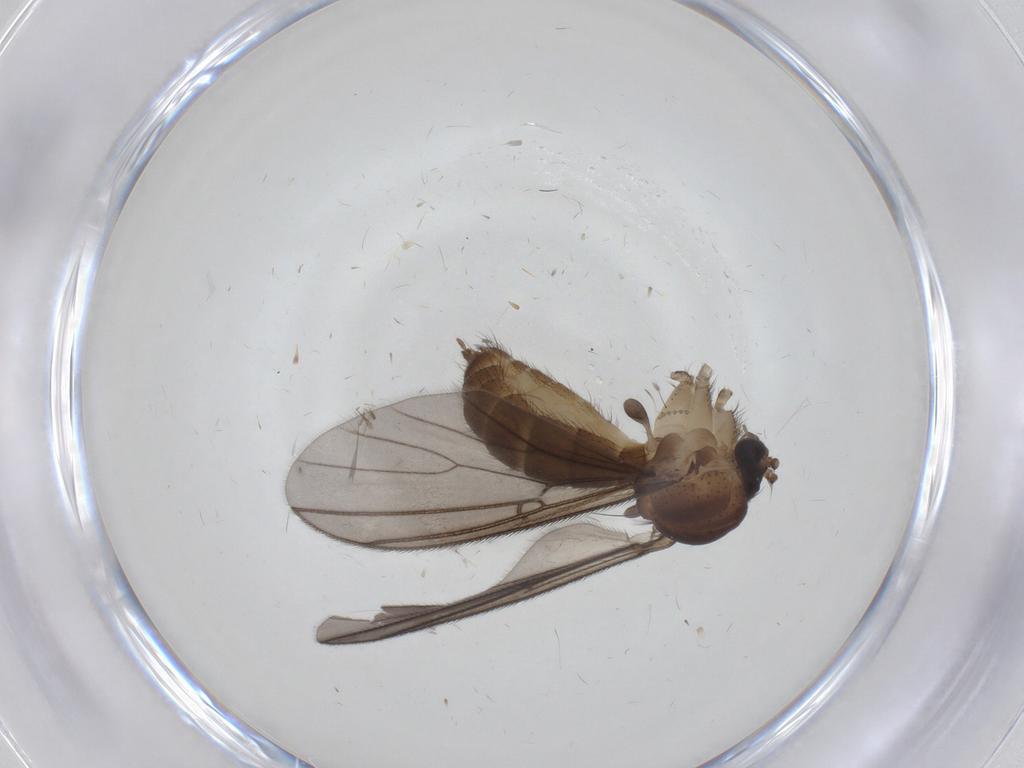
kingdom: Animalia
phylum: Arthropoda
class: Insecta
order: Diptera
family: Mycetophilidae
